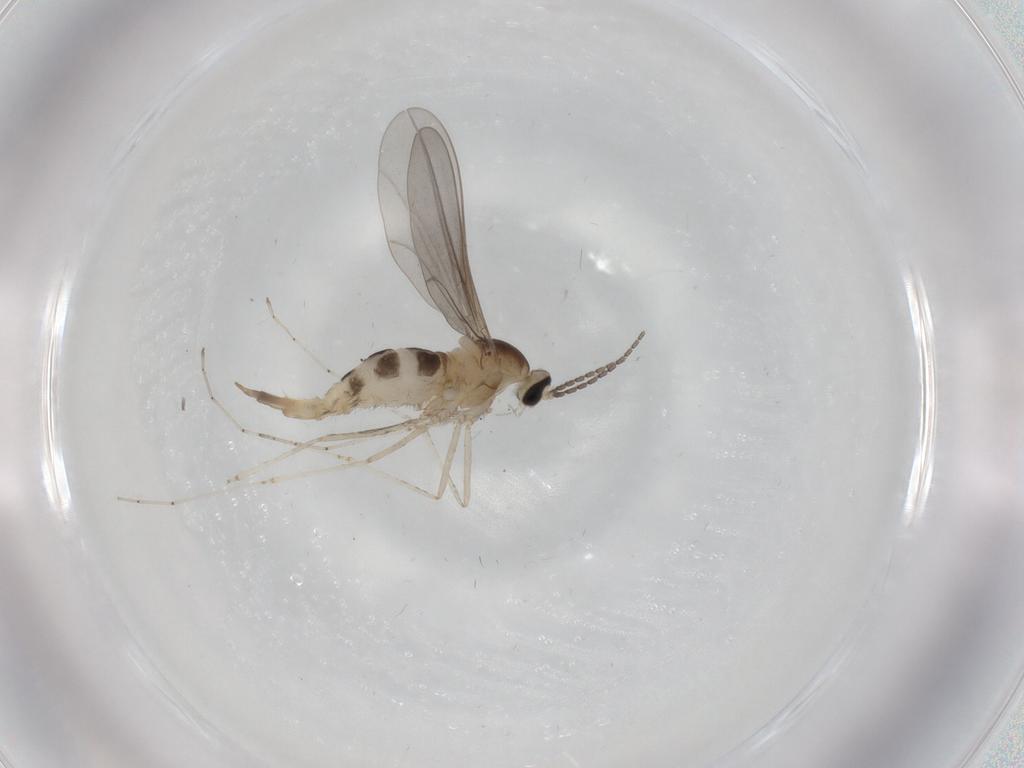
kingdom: Animalia
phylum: Arthropoda
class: Insecta
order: Diptera
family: Cecidomyiidae
